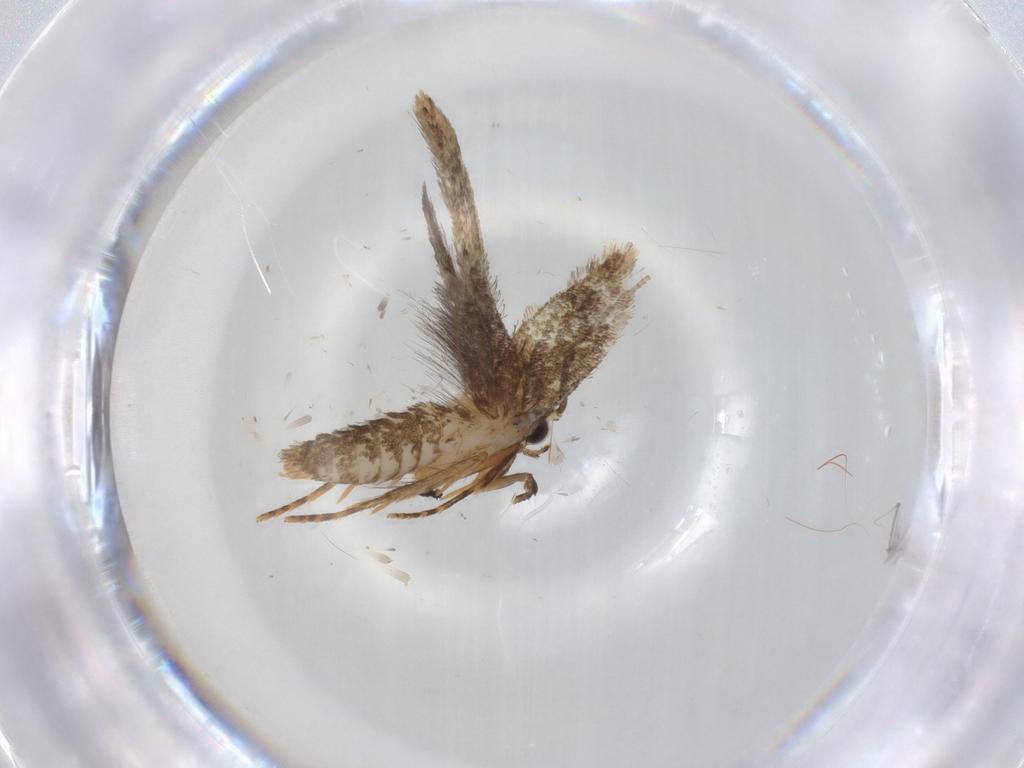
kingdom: Animalia
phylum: Arthropoda
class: Insecta
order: Lepidoptera
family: Tineidae
